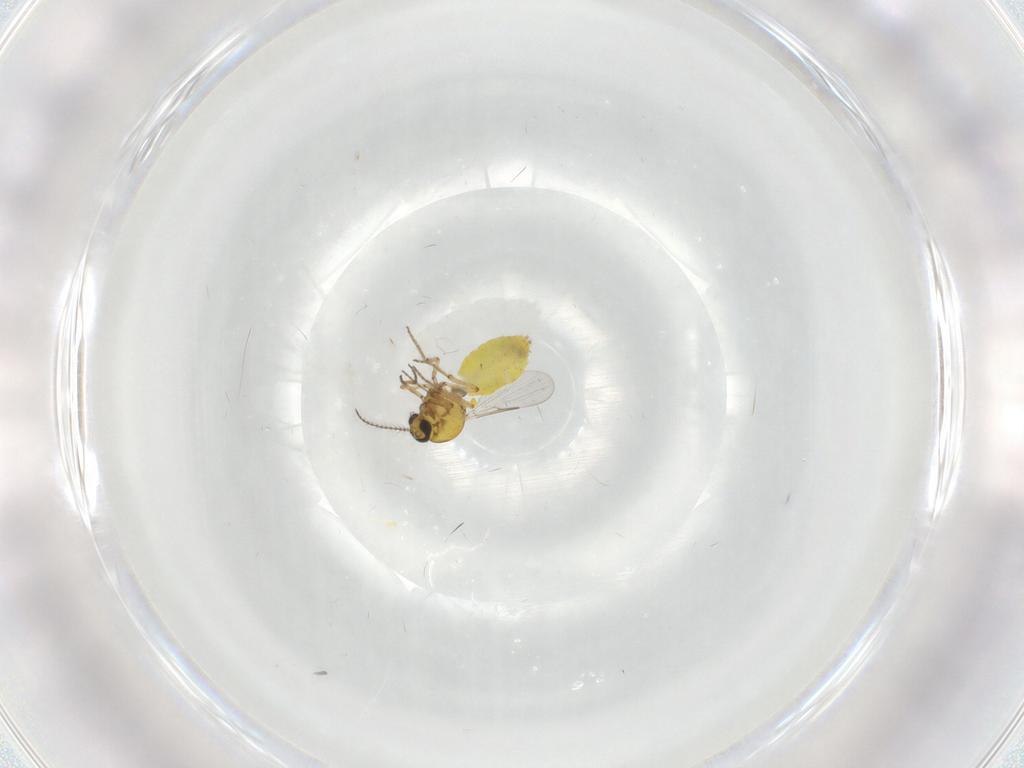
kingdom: Animalia
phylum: Arthropoda
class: Insecta
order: Diptera
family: Ceratopogonidae
